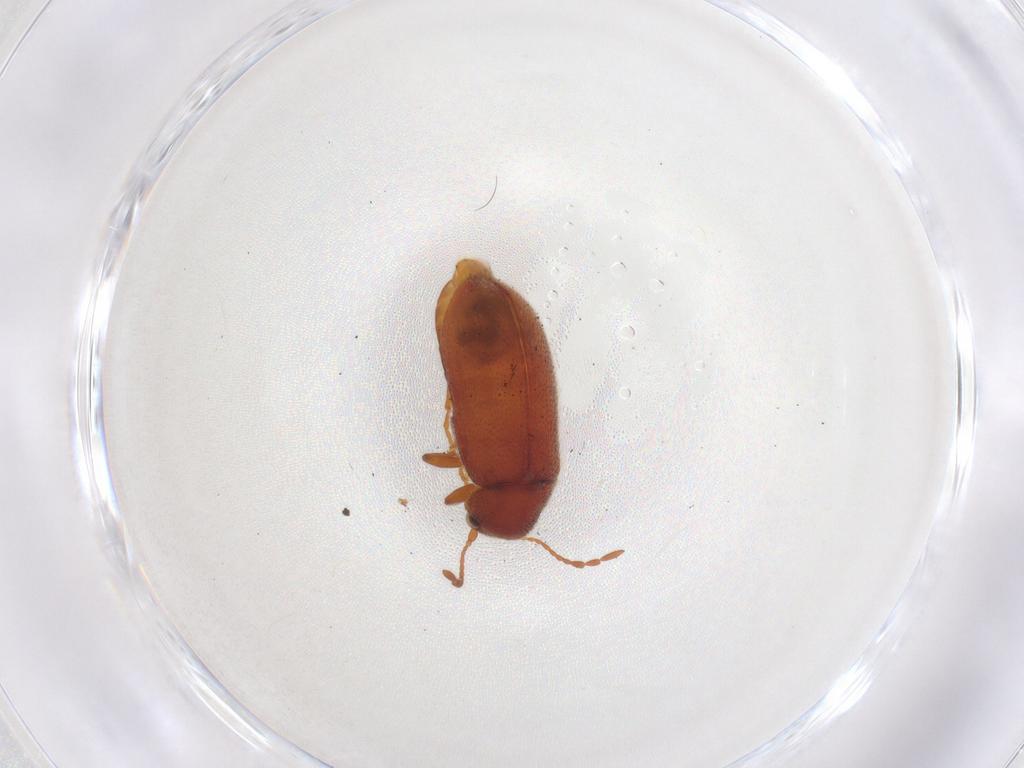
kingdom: Animalia
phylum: Arthropoda
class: Insecta
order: Coleoptera
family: Ptinidae
